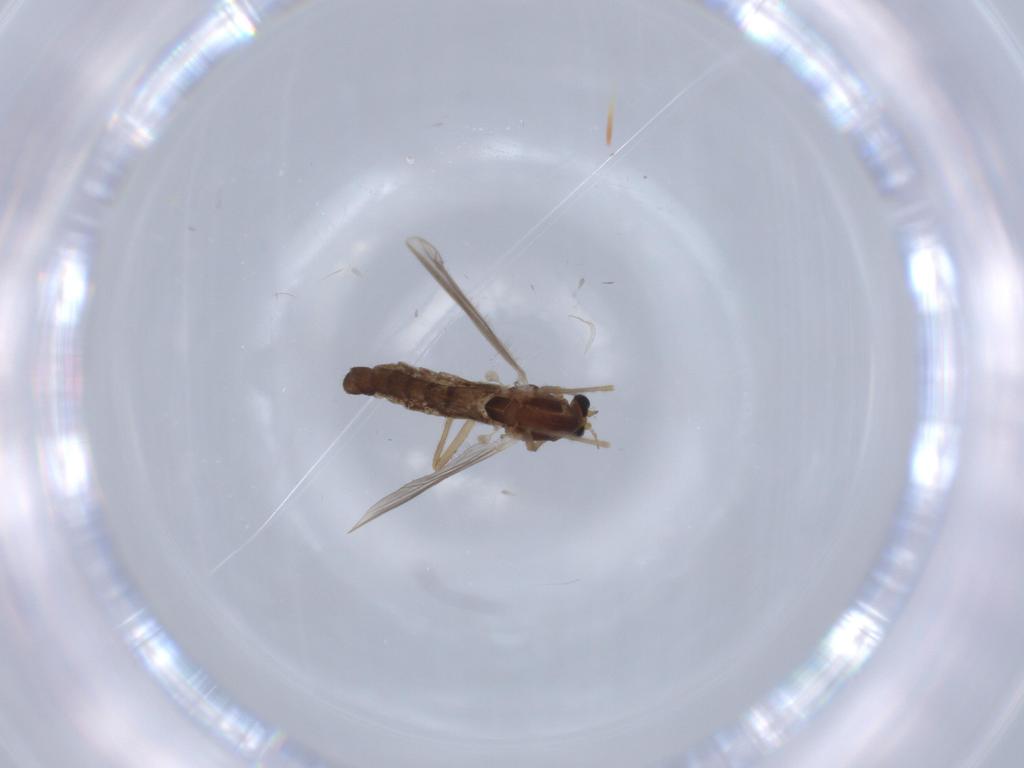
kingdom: Animalia
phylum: Arthropoda
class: Insecta
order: Diptera
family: Chironomidae
